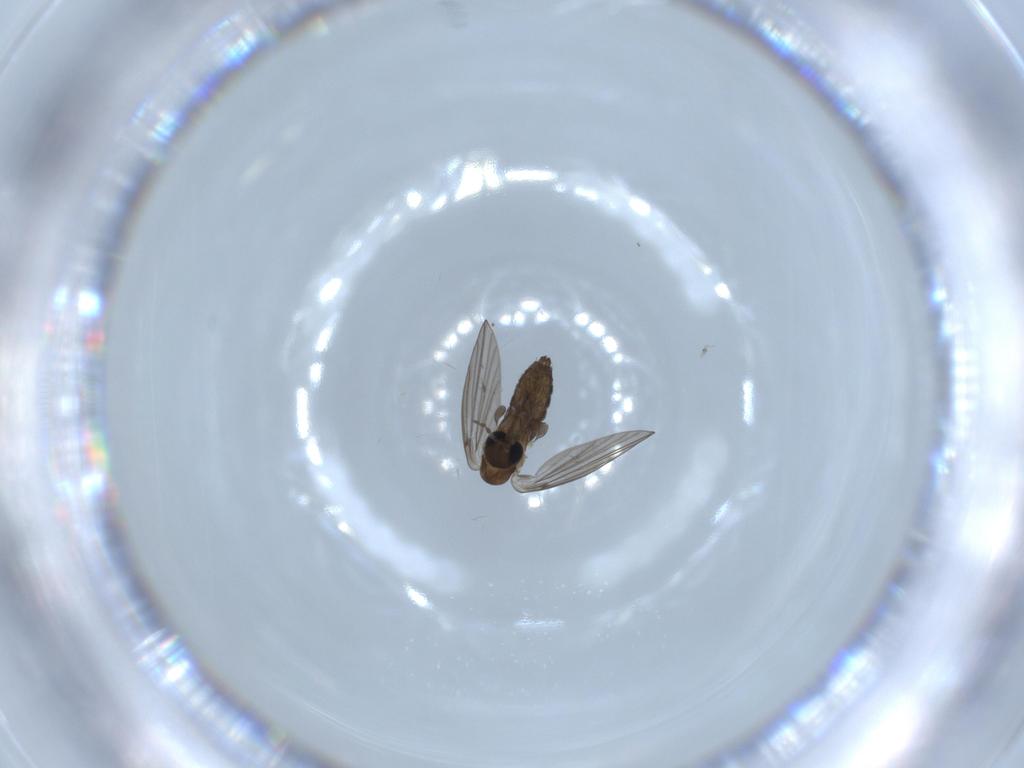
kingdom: Animalia
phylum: Arthropoda
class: Insecta
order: Diptera
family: Psychodidae
